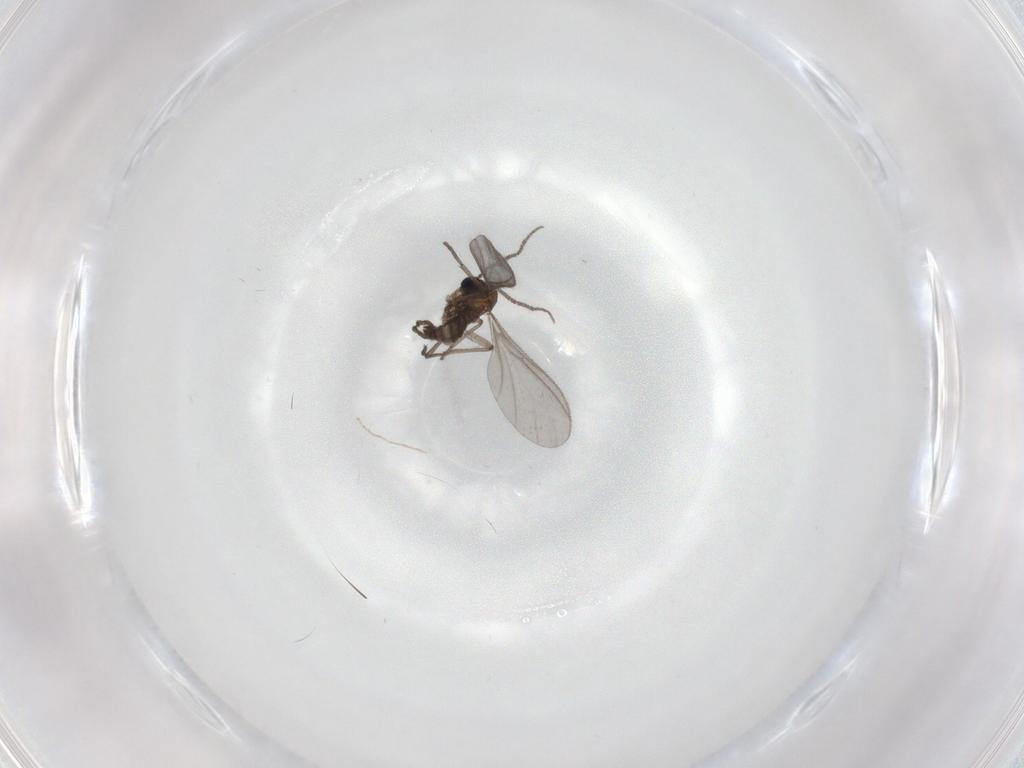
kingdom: Animalia
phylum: Arthropoda
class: Insecta
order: Diptera
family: Sciaridae
